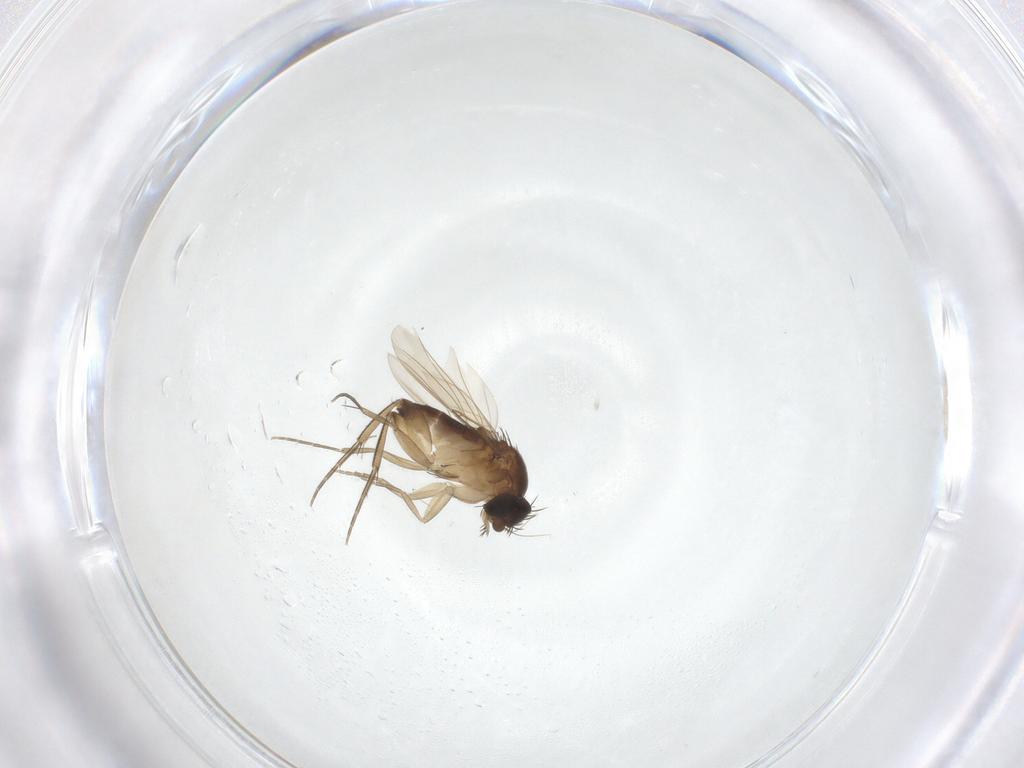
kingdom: Animalia
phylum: Arthropoda
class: Insecta
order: Diptera
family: Phoridae
